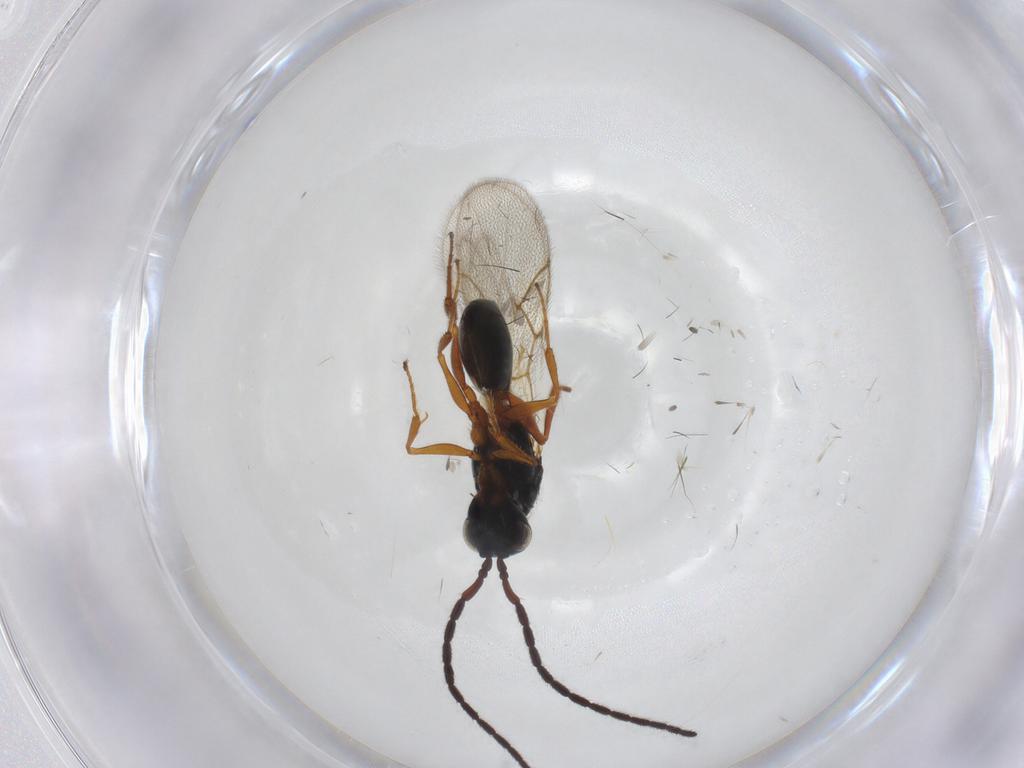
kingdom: Animalia
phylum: Arthropoda
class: Insecta
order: Hymenoptera
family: Figitidae
